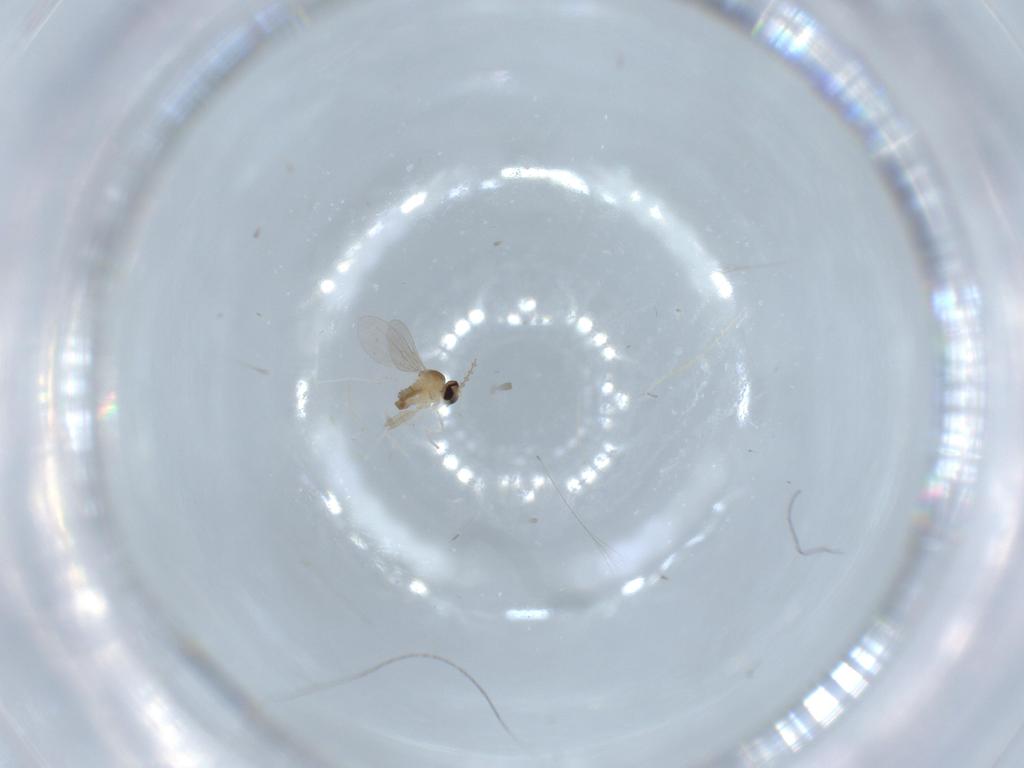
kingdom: Animalia
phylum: Arthropoda
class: Insecta
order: Diptera
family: Cecidomyiidae
